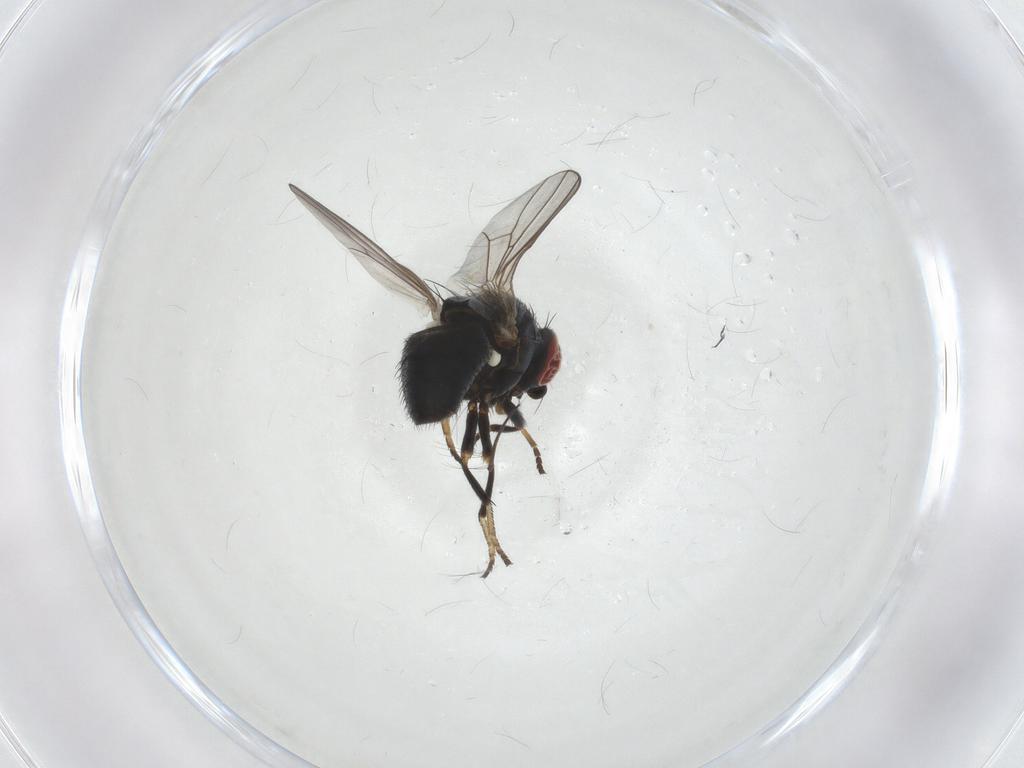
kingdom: Animalia
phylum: Arthropoda
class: Insecta
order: Diptera
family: Chamaemyiidae
